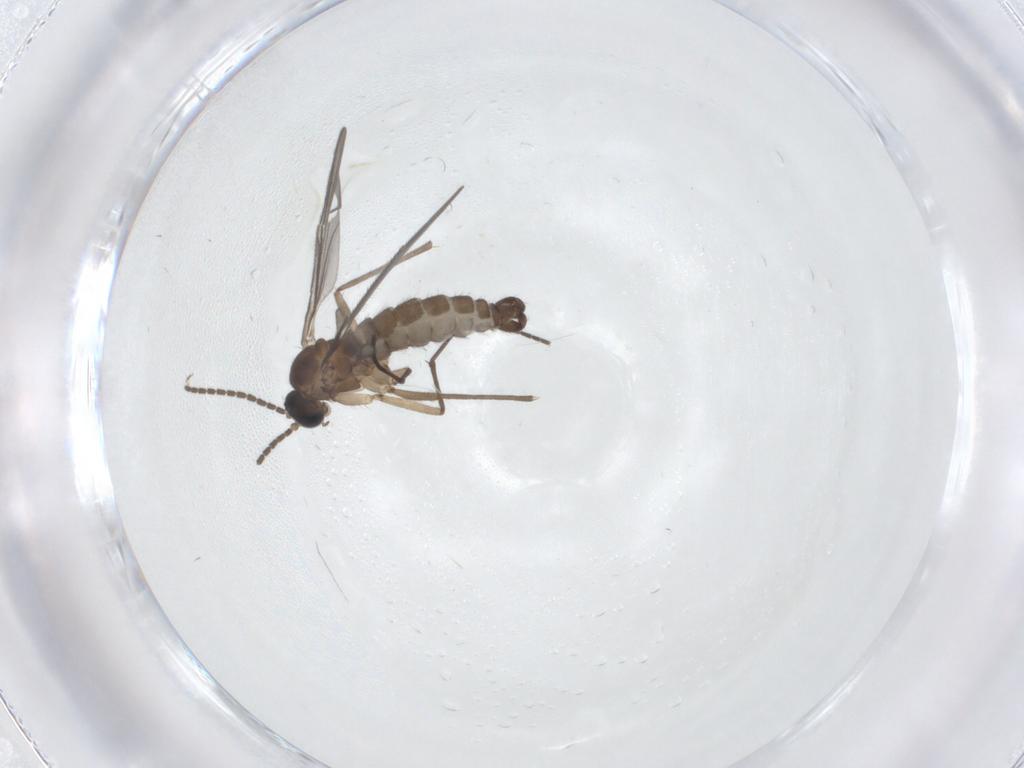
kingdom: Animalia
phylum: Arthropoda
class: Insecta
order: Diptera
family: Sciaridae
